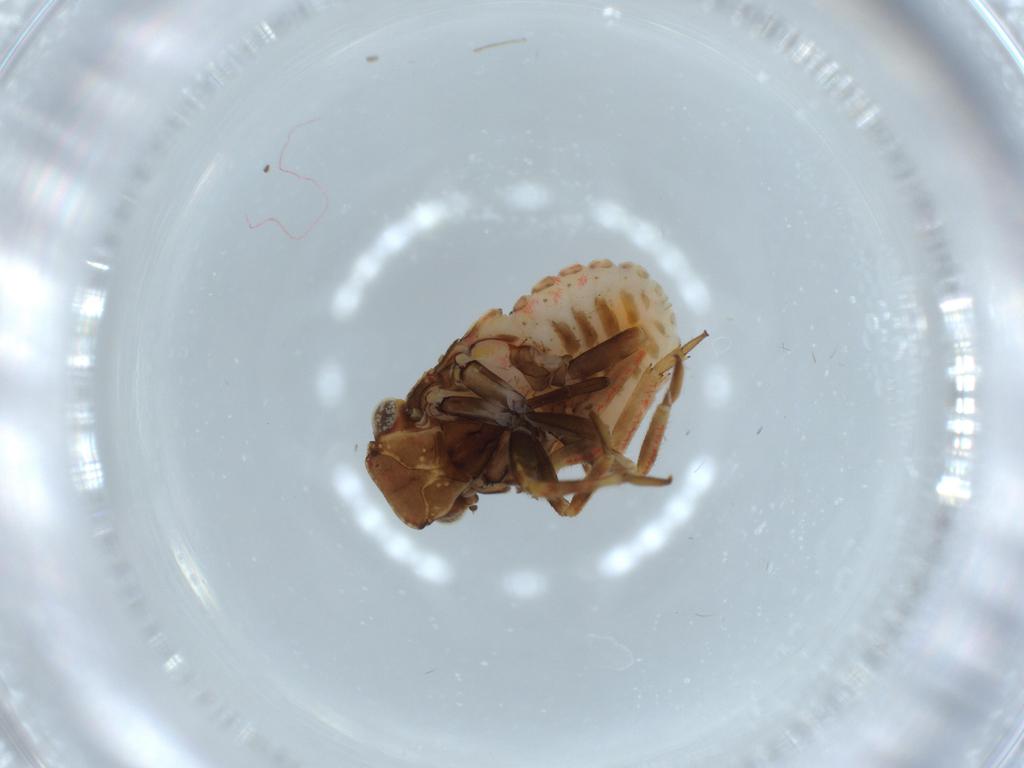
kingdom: Animalia
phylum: Arthropoda
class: Insecta
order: Hemiptera
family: Fulgoroidea_incertae_sedis
